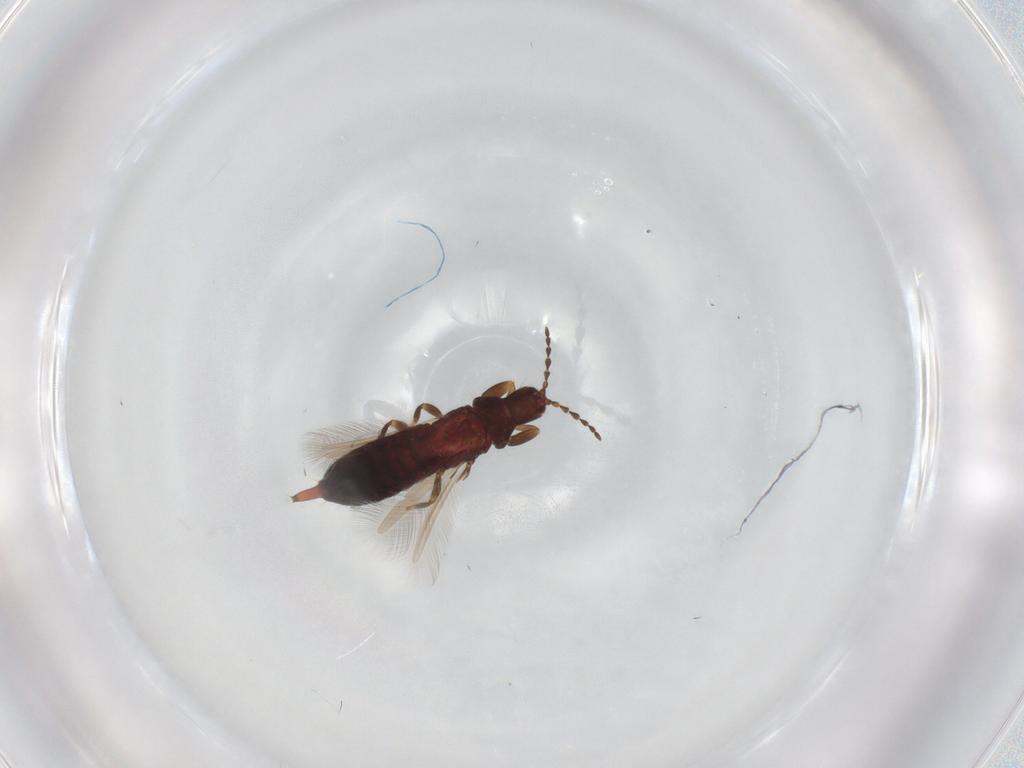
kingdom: Animalia
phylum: Arthropoda
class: Insecta
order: Thysanoptera
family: Phlaeothripidae
